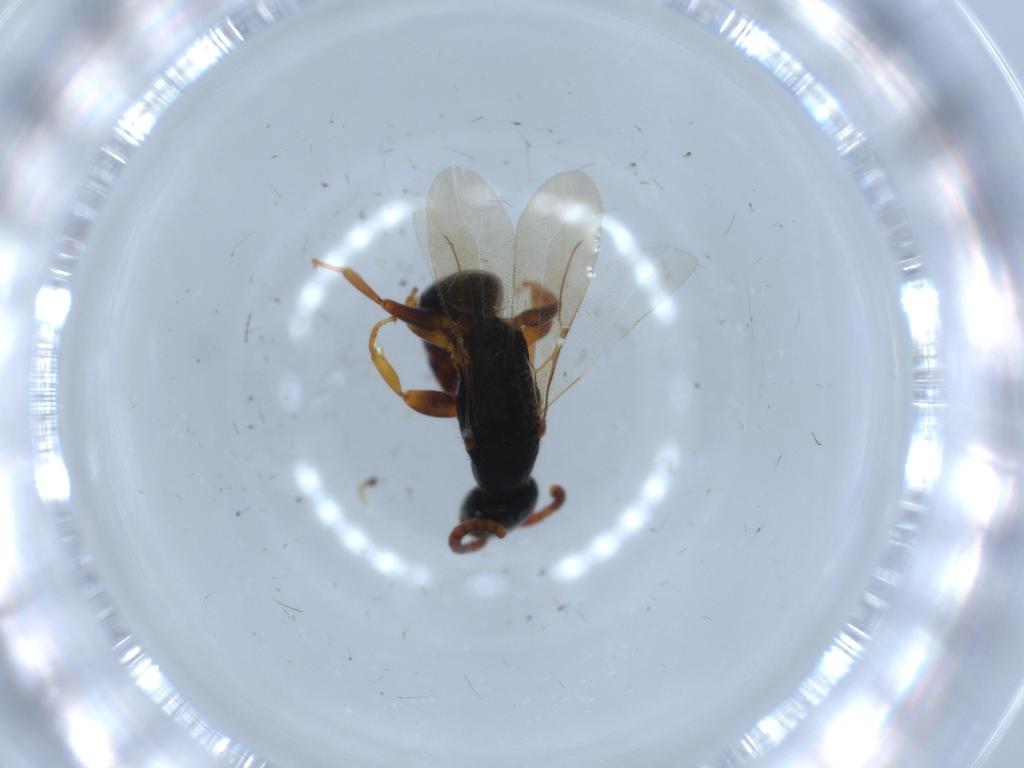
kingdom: Animalia
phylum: Arthropoda
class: Insecta
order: Hymenoptera
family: Bethylidae
